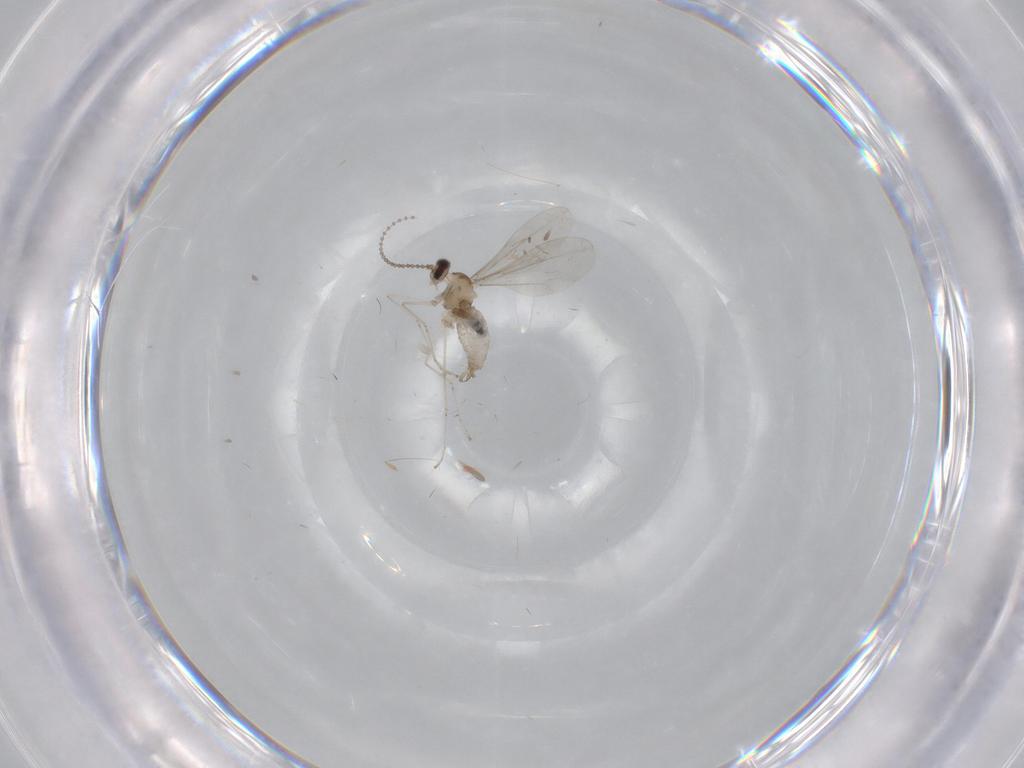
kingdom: Animalia
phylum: Arthropoda
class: Insecta
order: Diptera
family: Cecidomyiidae
